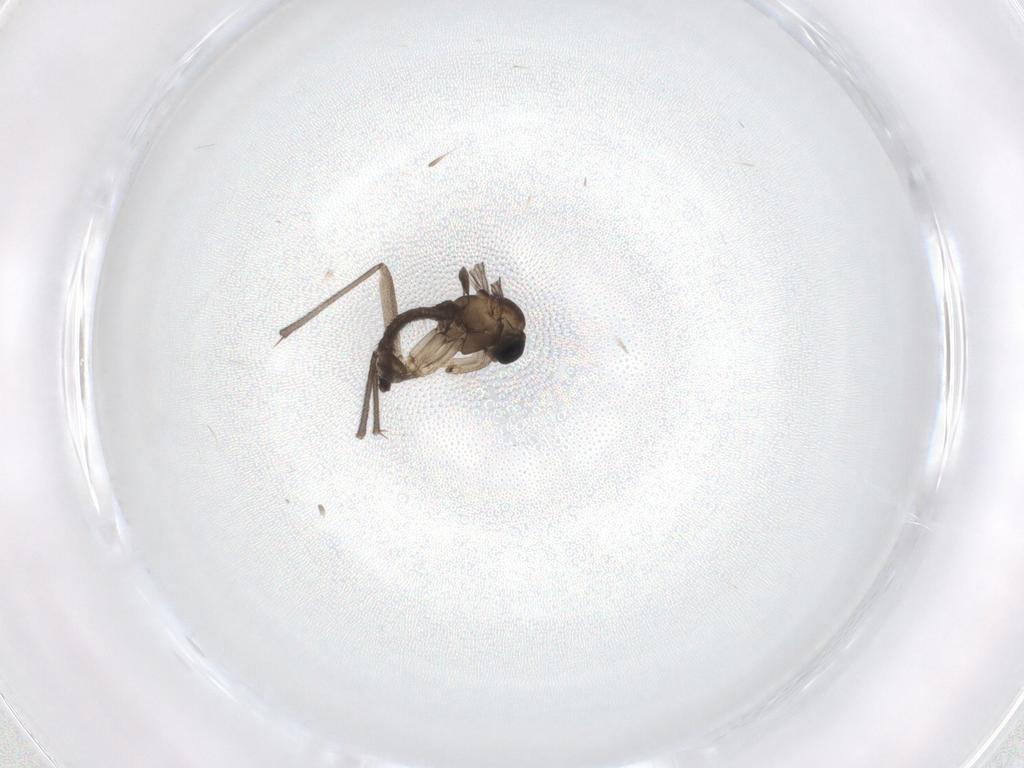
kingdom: Animalia
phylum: Arthropoda
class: Insecta
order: Diptera
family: Sciaridae
